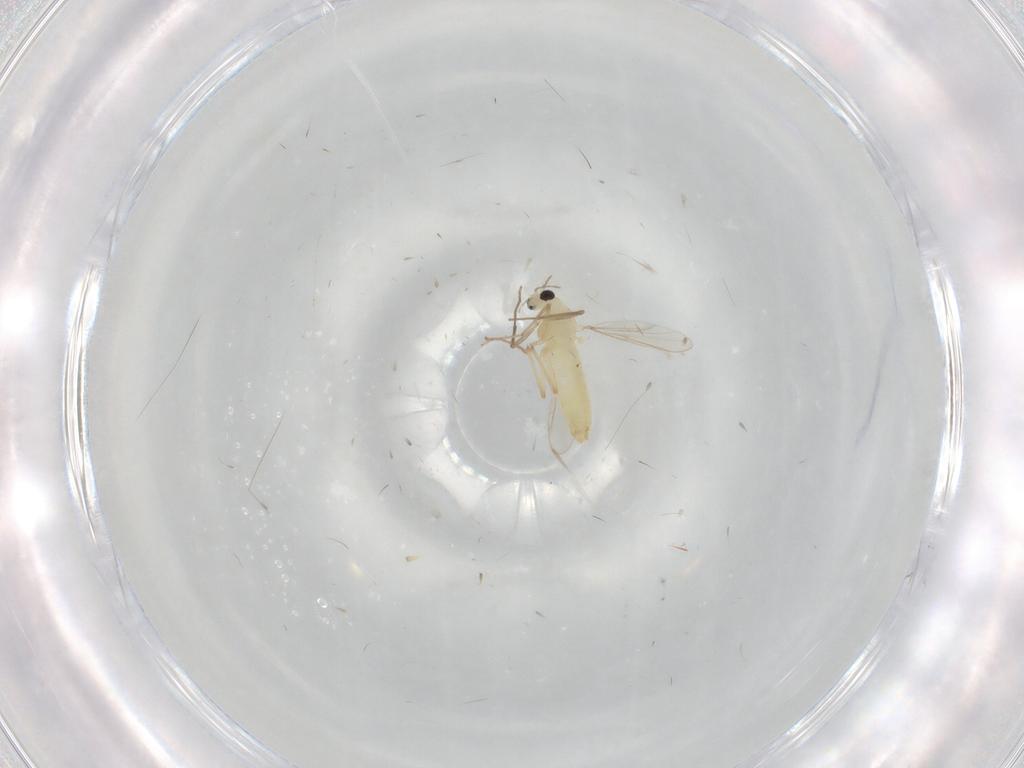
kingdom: Animalia
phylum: Arthropoda
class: Insecta
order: Diptera
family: Chironomidae
